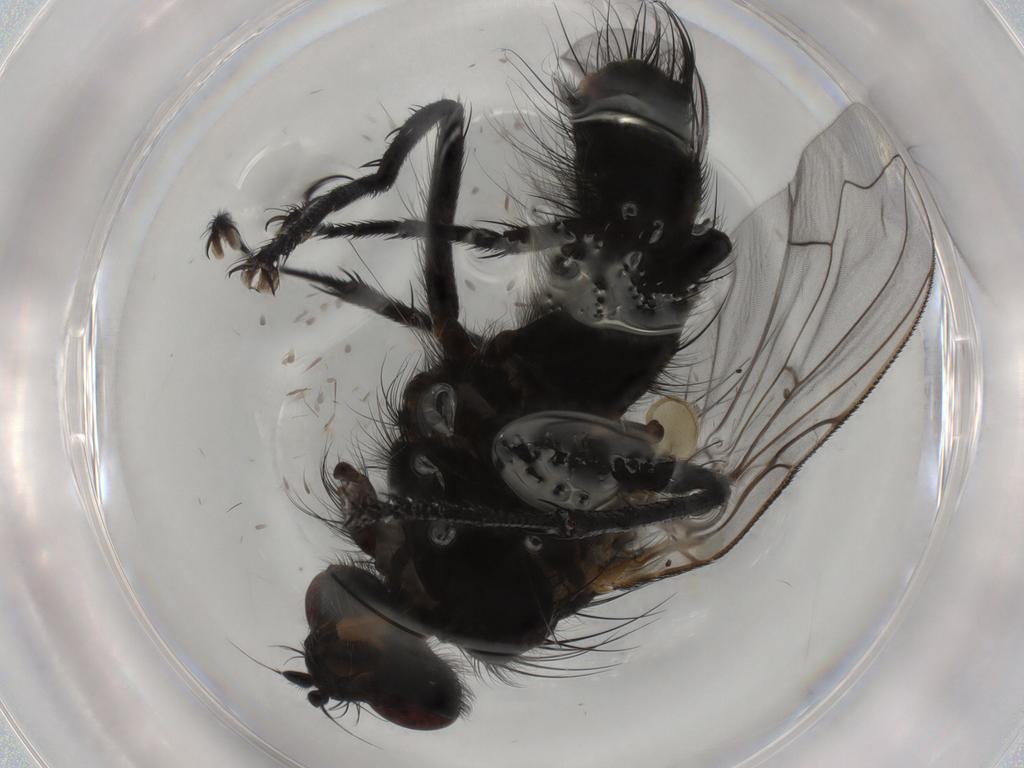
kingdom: Animalia
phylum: Arthropoda
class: Insecta
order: Diptera
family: Sarcophagidae
